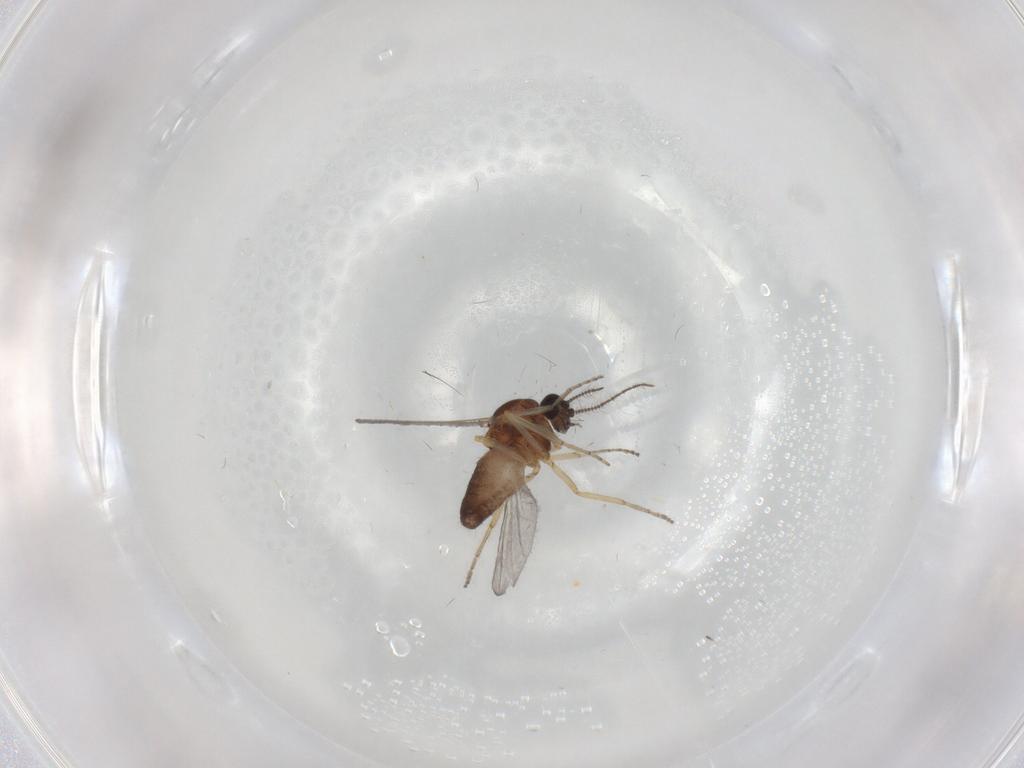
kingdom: Animalia
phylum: Arthropoda
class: Insecta
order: Diptera
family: Ceratopogonidae
